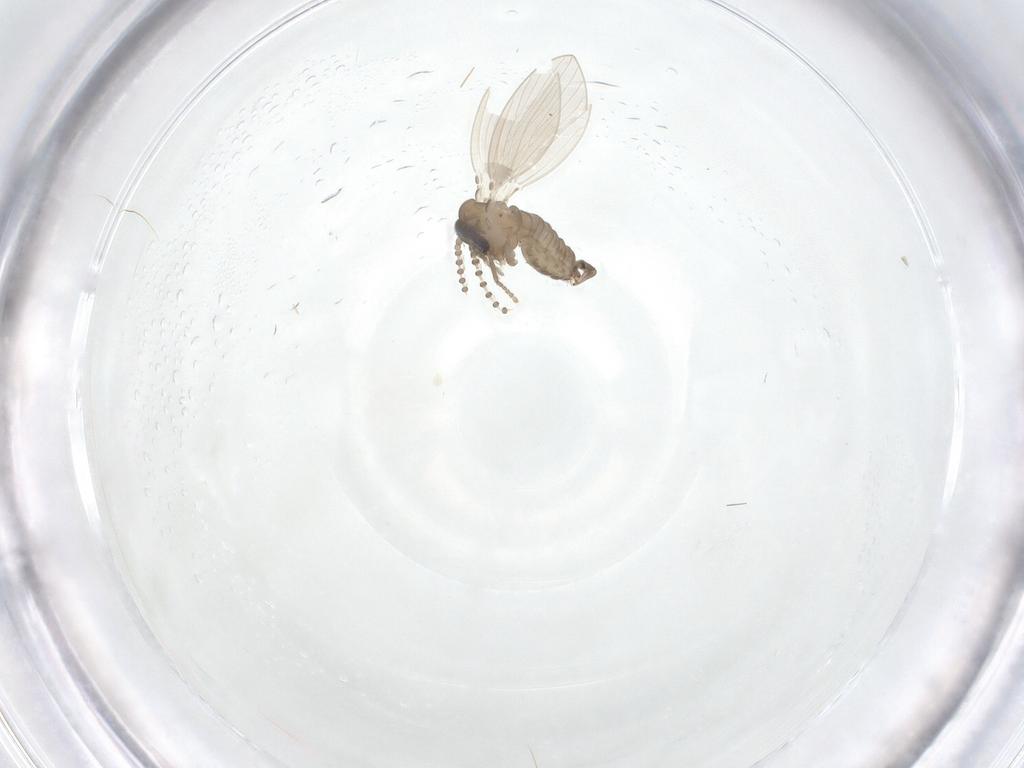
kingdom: Animalia
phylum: Arthropoda
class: Insecta
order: Diptera
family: Psychodidae
